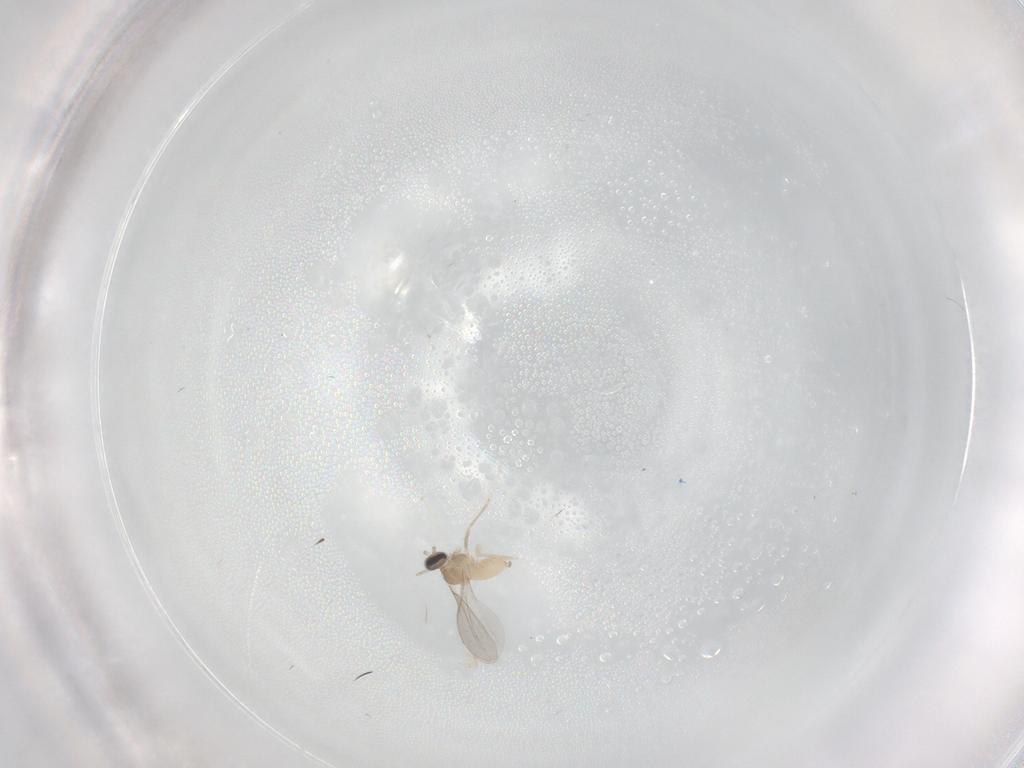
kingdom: Animalia
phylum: Arthropoda
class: Insecta
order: Diptera
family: Cecidomyiidae
